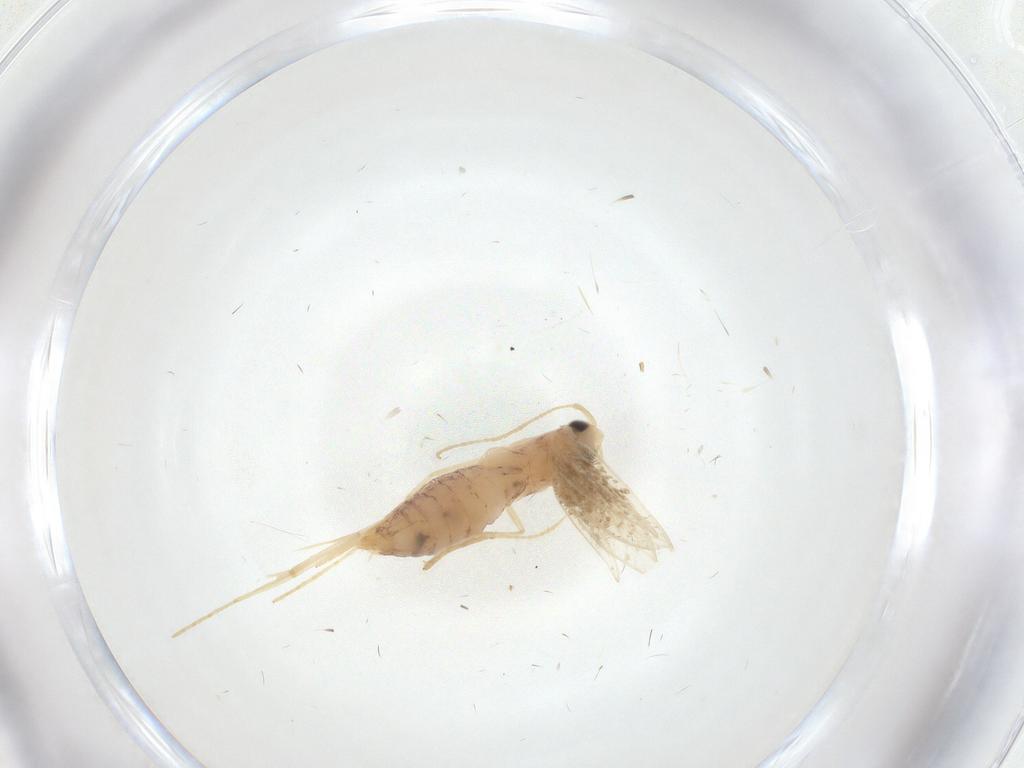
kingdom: Animalia
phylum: Arthropoda
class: Insecta
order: Lepidoptera
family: Lyonetiidae
